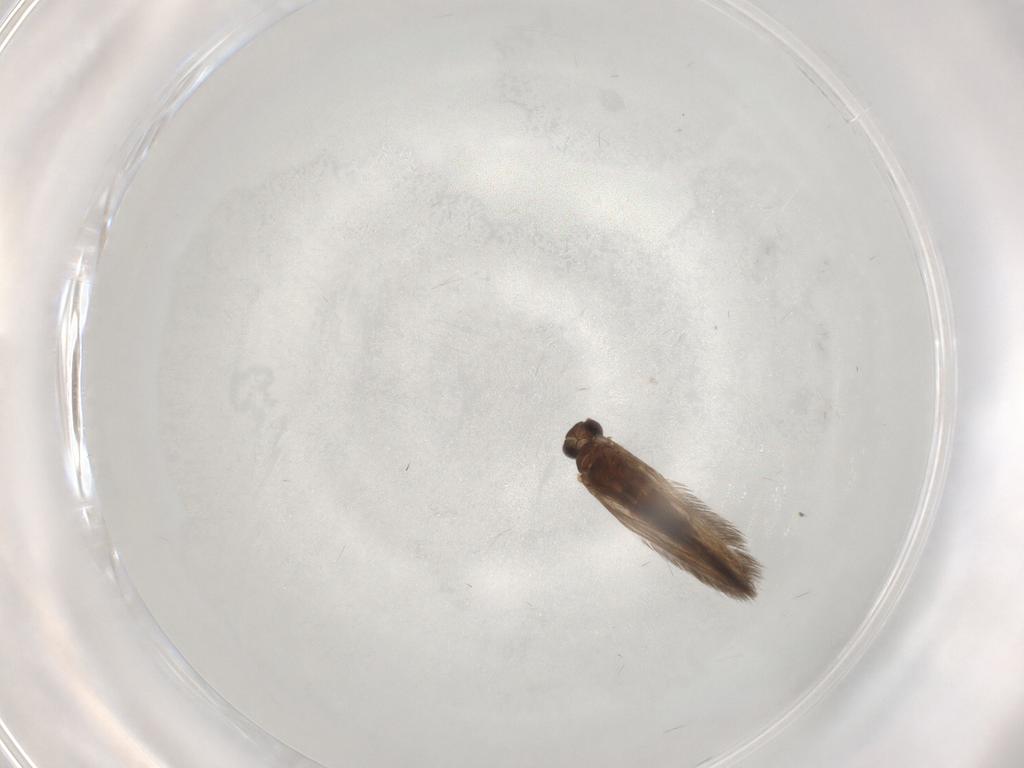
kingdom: Animalia
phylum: Arthropoda
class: Insecta
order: Trichoptera
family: Hydroptilidae
